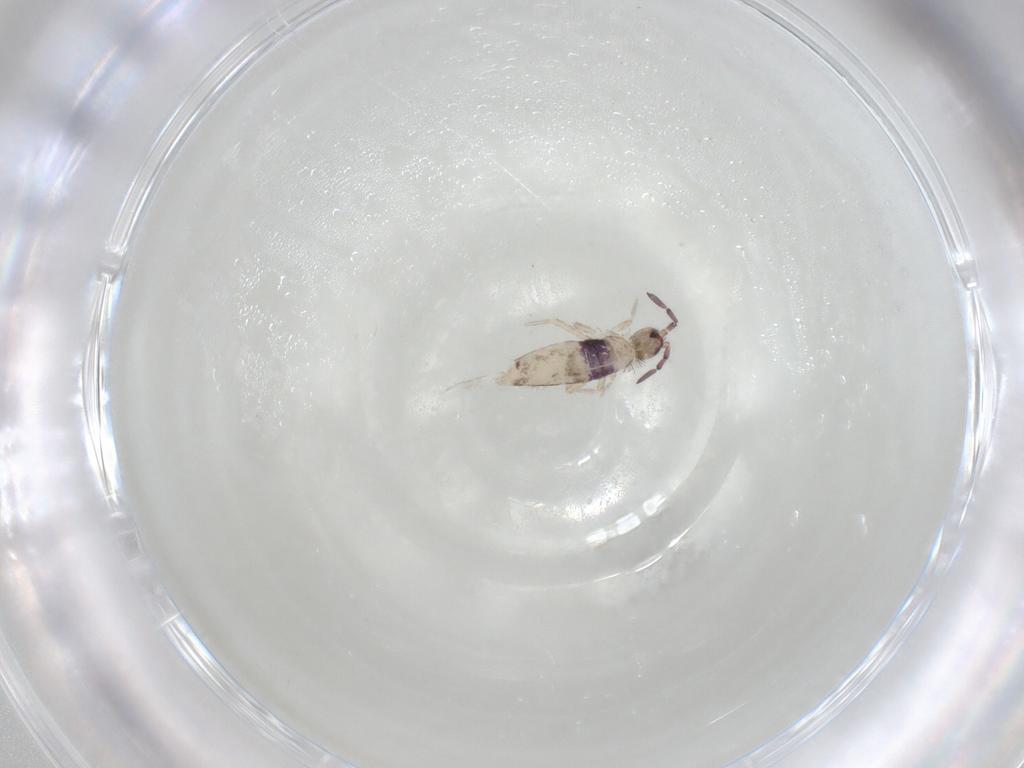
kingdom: Animalia
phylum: Arthropoda
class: Collembola
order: Entomobryomorpha
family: Entomobryidae
